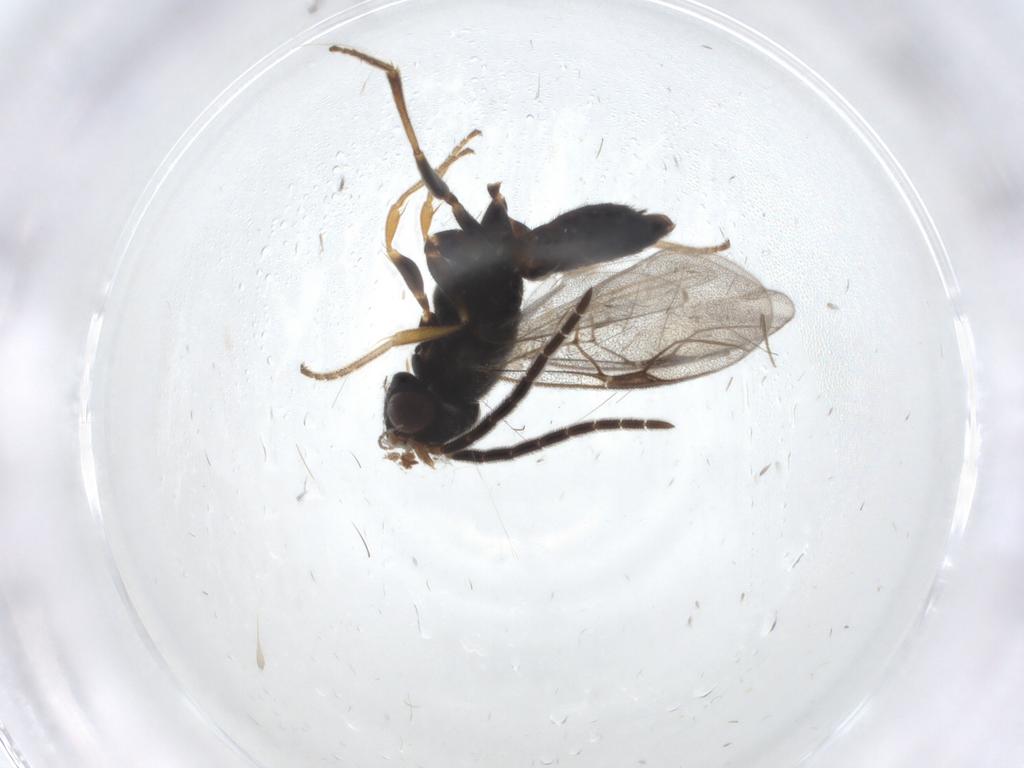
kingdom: Animalia
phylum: Arthropoda
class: Insecta
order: Hymenoptera
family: Dryinidae
